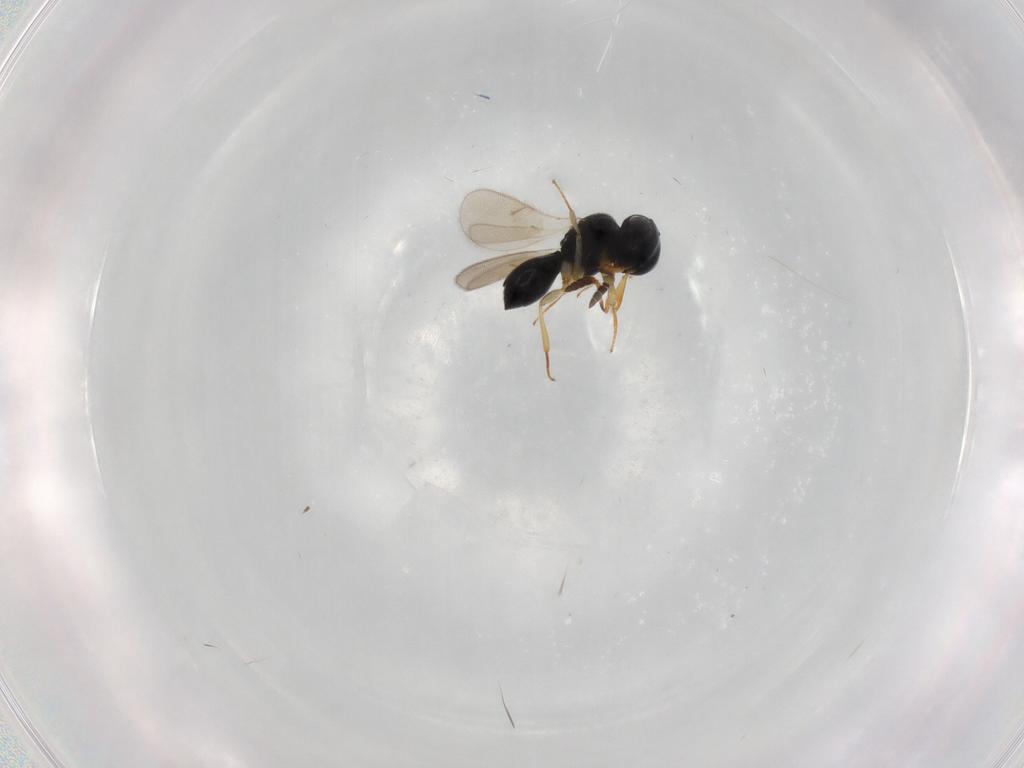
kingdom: Animalia
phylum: Arthropoda
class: Insecta
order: Hymenoptera
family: Scelionidae
